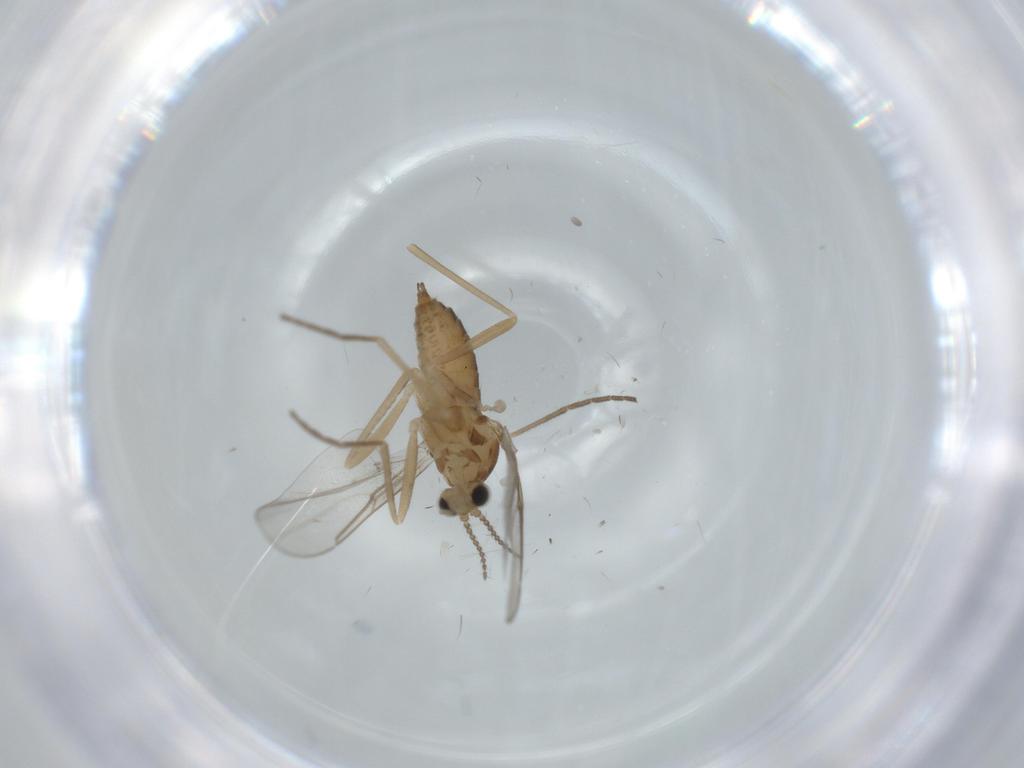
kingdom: Animalia
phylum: Arthropoda
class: Insecta
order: Diptera
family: Cecidomyiidae
